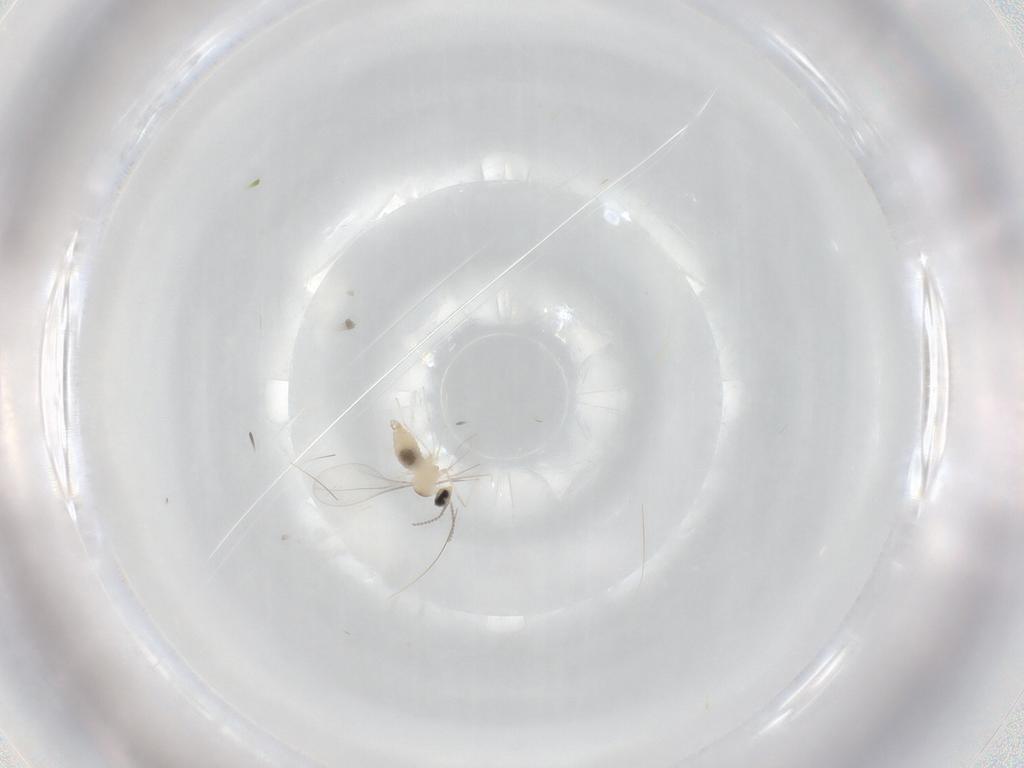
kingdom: Animalia
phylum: Arthropoda
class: Insecta
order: Diptera
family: Cecidomyiidae
